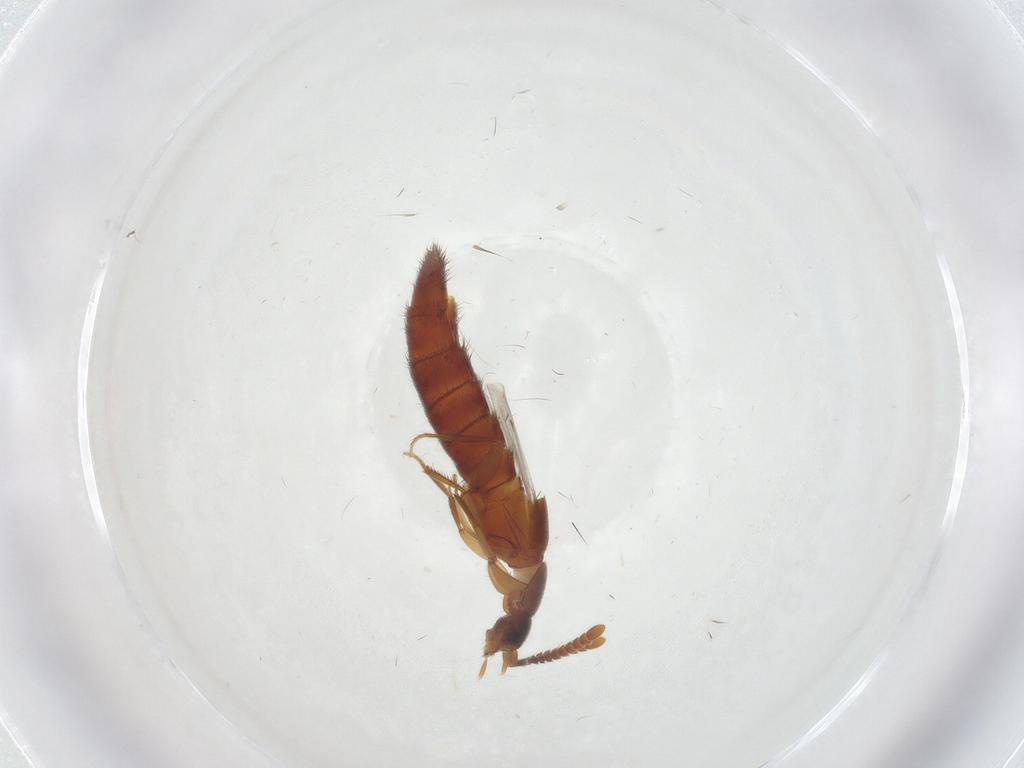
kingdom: Animalia
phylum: Arthropoda
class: Insecta
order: Coleoptera
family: Staphylinidae
